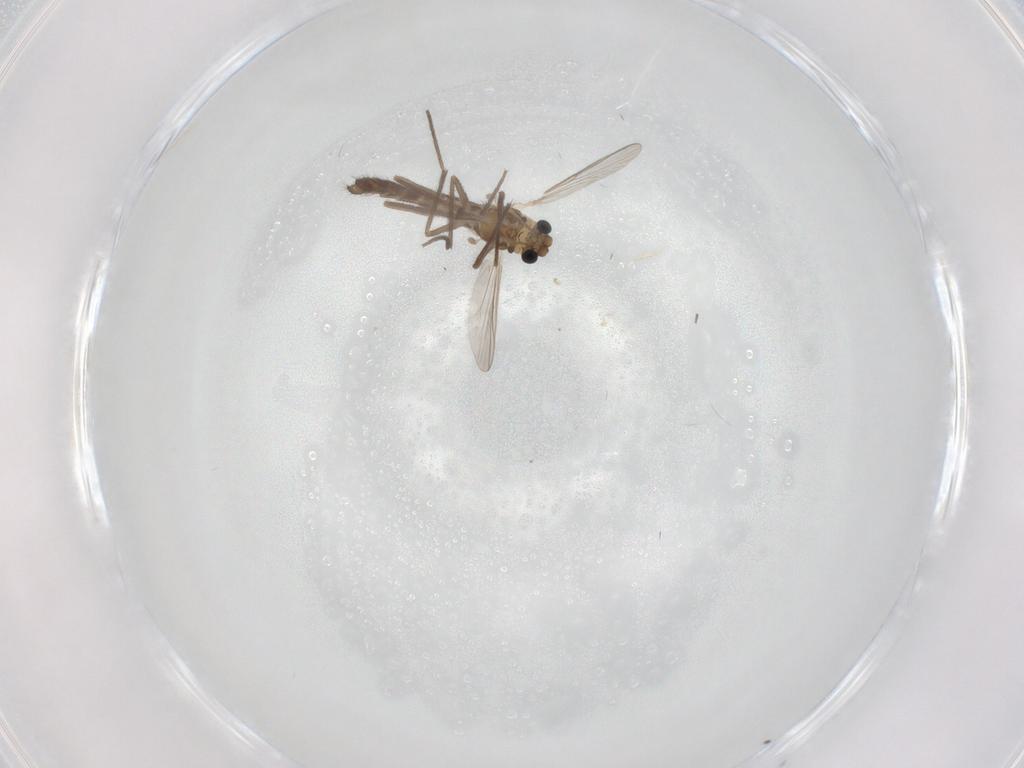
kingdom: Animalia
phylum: Arthropoda
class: Insecta
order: Diptera
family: Chironomidae
